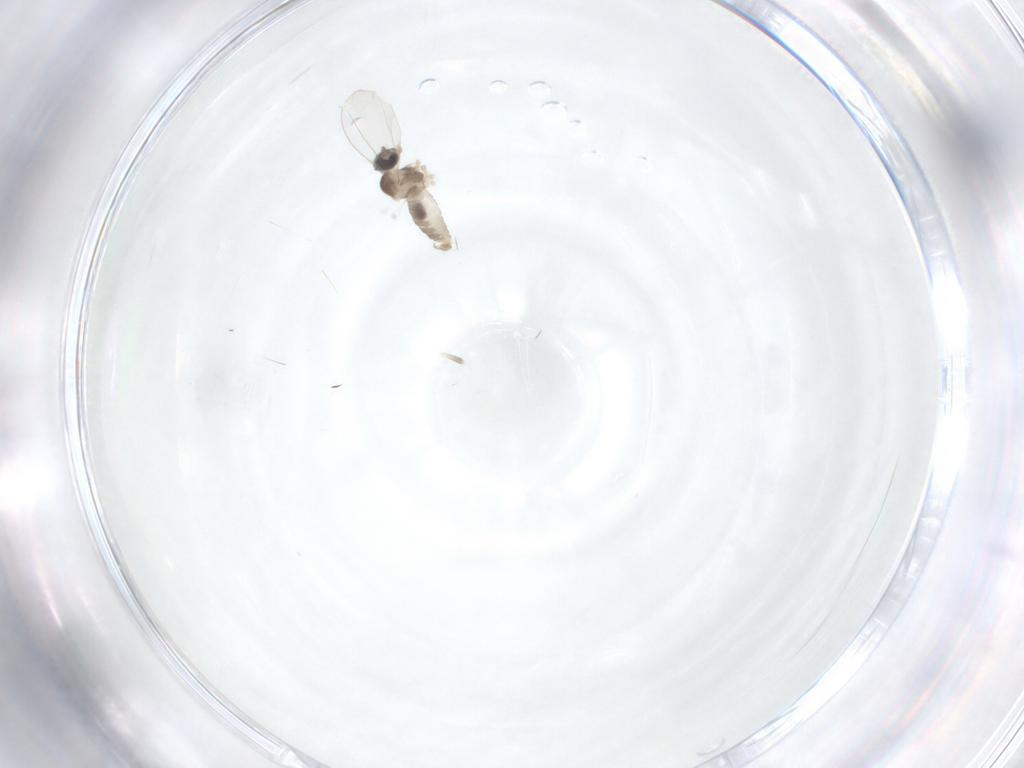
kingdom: Animalia
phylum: Arthropoda
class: Insecta
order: Diptera
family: Cecidomyiidae
